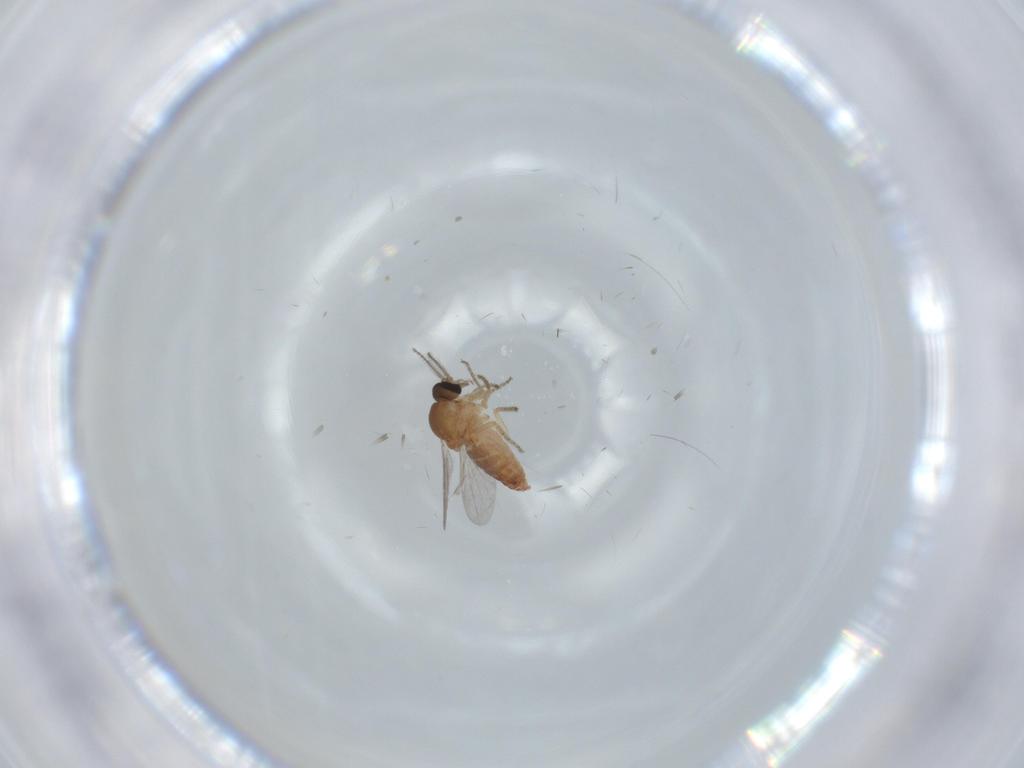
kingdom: Animalia
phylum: Arthropoda
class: Insecta
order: Diptera
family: Ceratopogonidae
